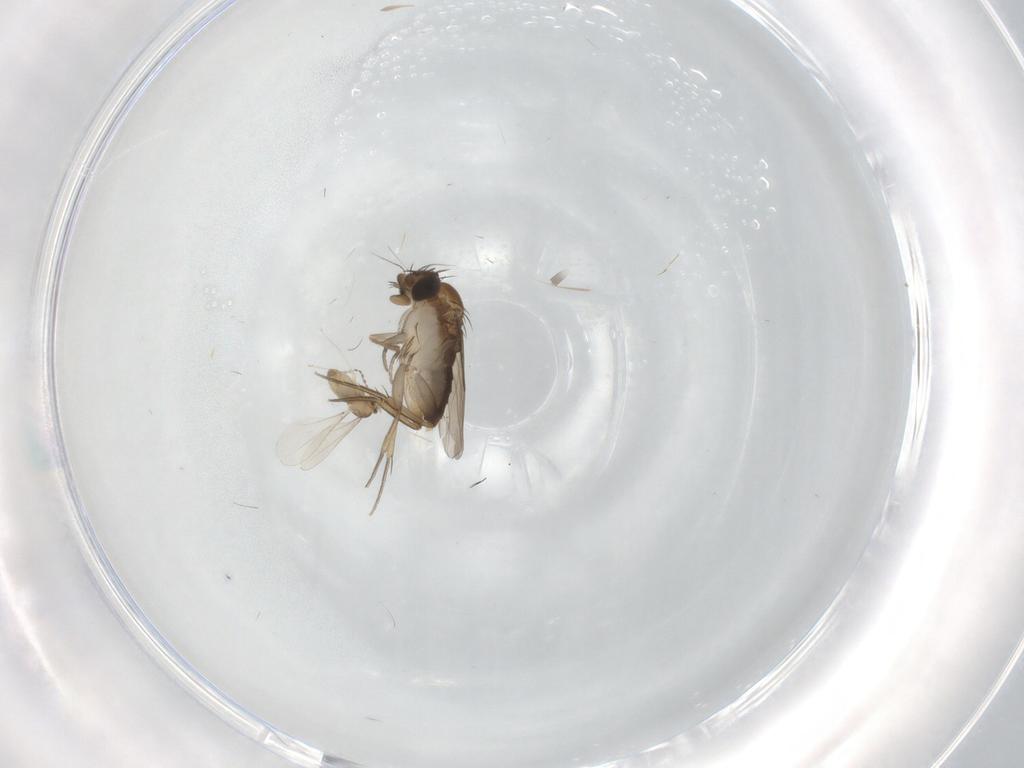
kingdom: Animalia
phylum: Arthropoda
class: Insecta
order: Diptera
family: Phoridae
